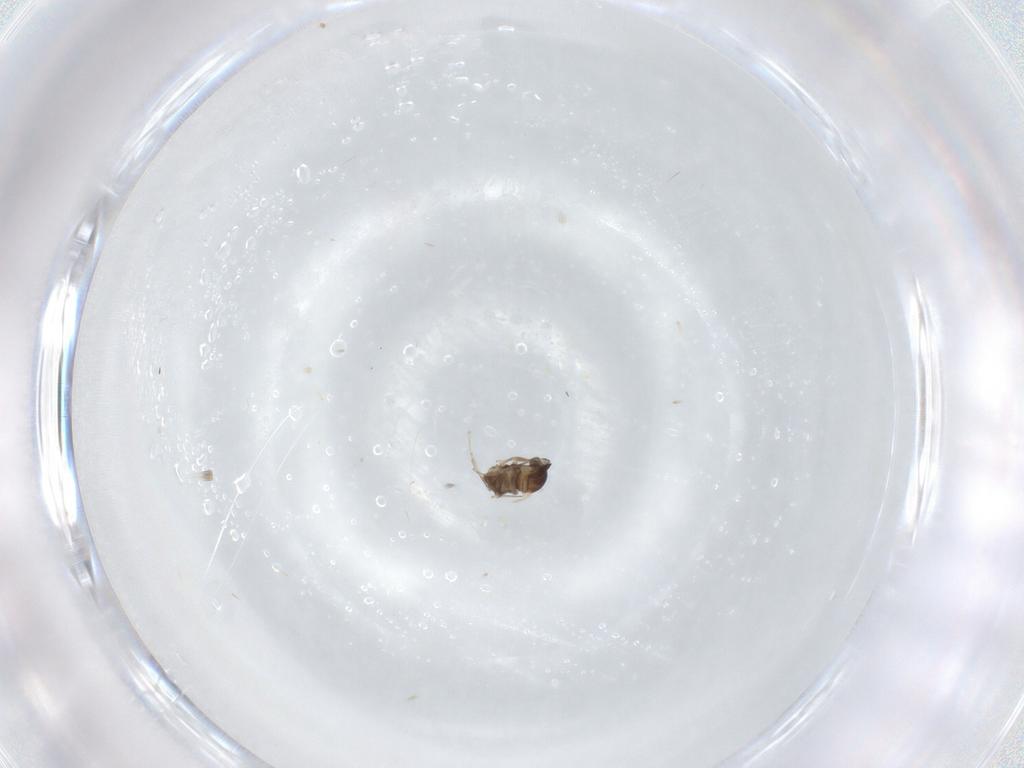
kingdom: Animalia
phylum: Arthropoda
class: Insecta
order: Diptera
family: Cecidomyiidae
